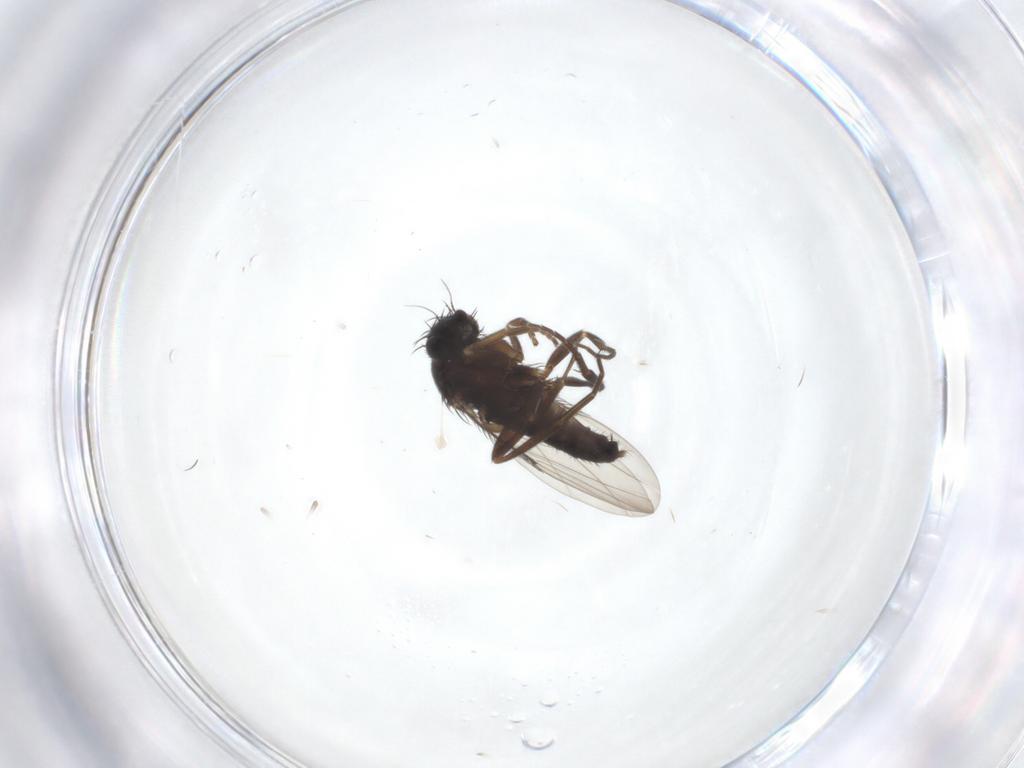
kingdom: Animalia
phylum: Arthropoda
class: Insecta
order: Diptera
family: Phoridae
